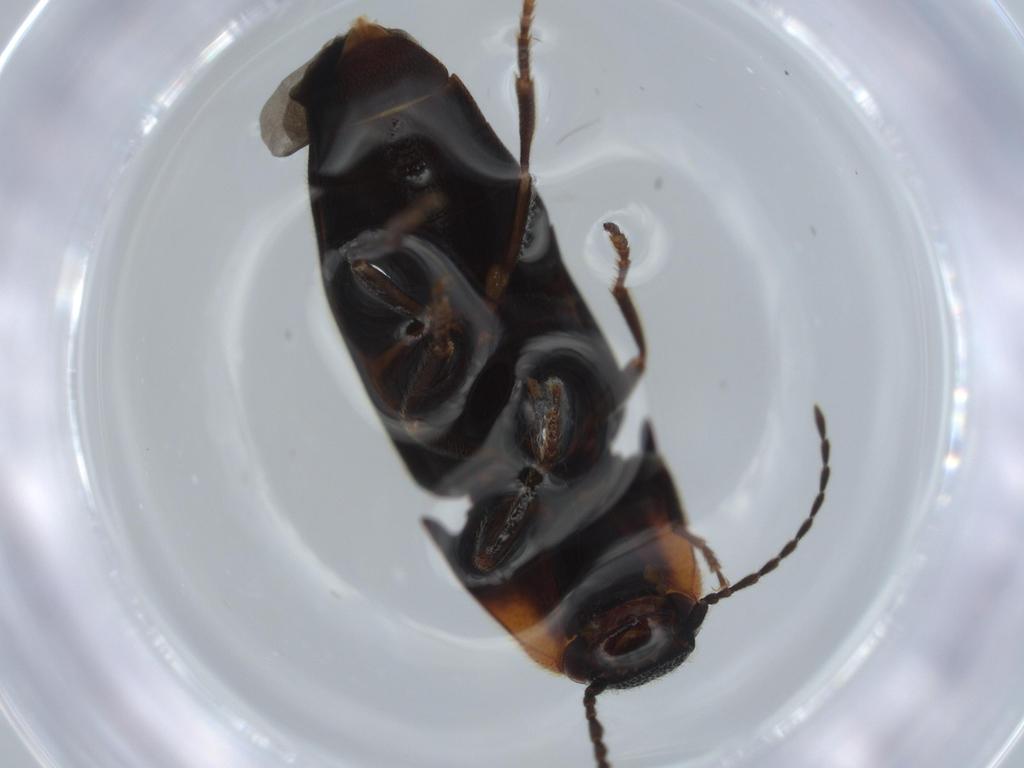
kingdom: Animalia
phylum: Arthropoda
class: Insecta
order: Coleoptera
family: Elateridae
